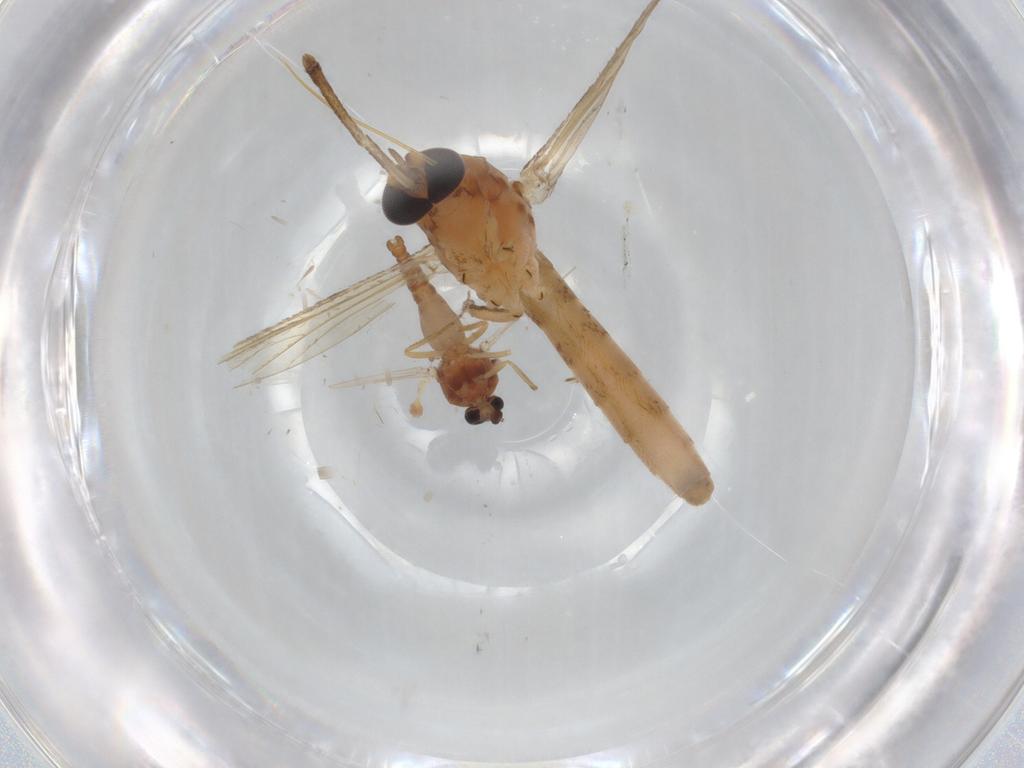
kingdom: Animalia
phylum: Arthropoda
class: Insecta
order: Diptera
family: Ceratopogonidae
